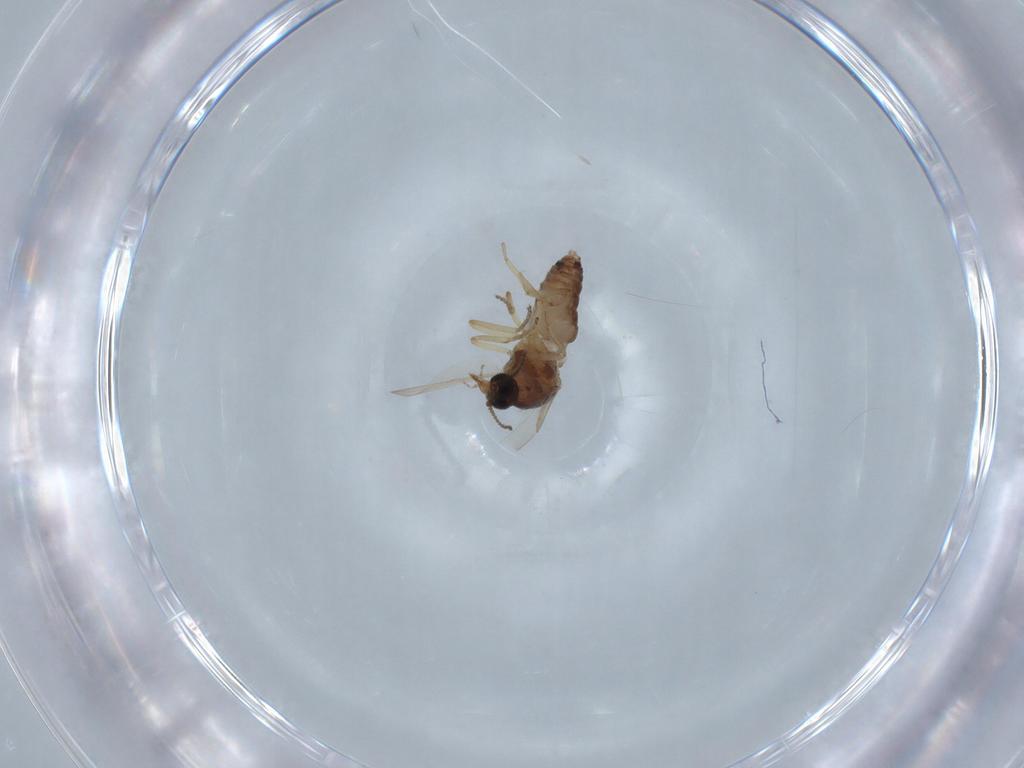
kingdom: Animalia
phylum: Arthropoda
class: Insecta
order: Diptera
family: Ceratopogonidae
